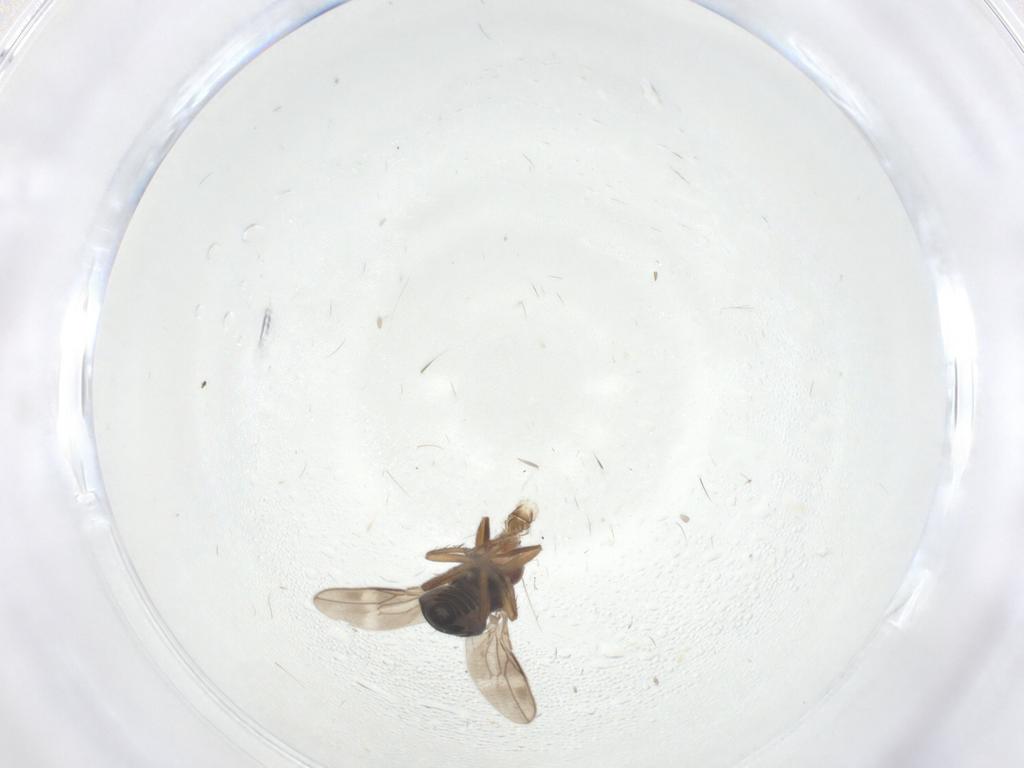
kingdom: Animalia
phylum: Arthropoda
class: Insecta
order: Diptera
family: Sphaeroceridae
